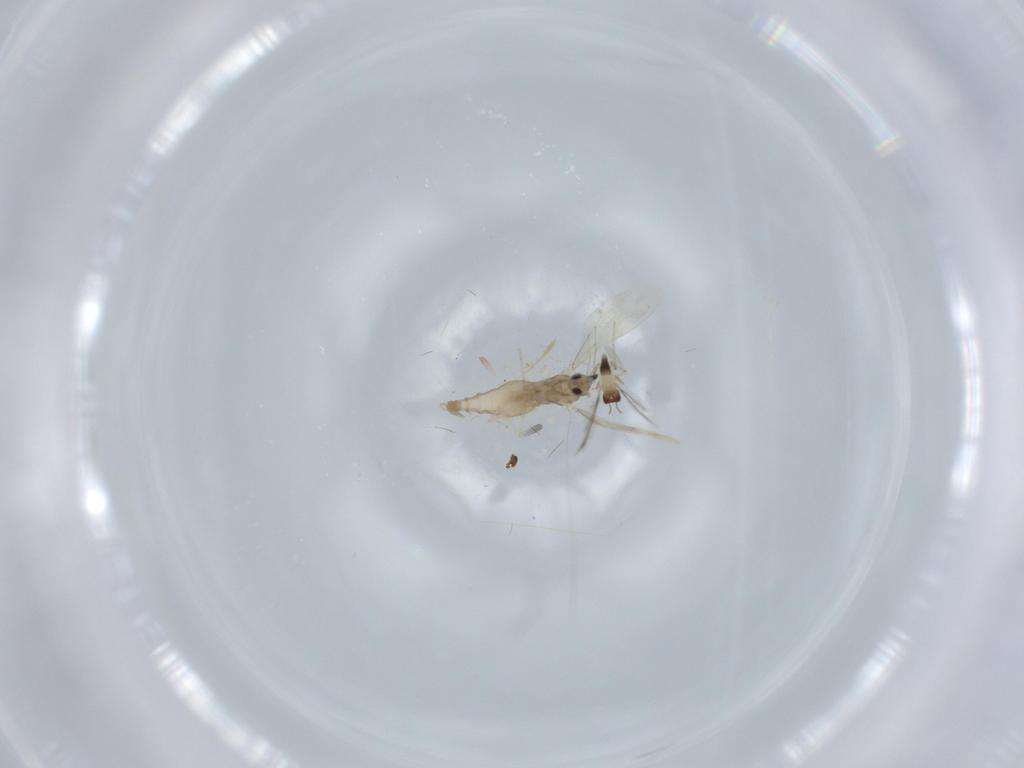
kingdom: Animalia
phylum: Arthropoda
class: Insecta
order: Diptera
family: Cecidomyiidae
